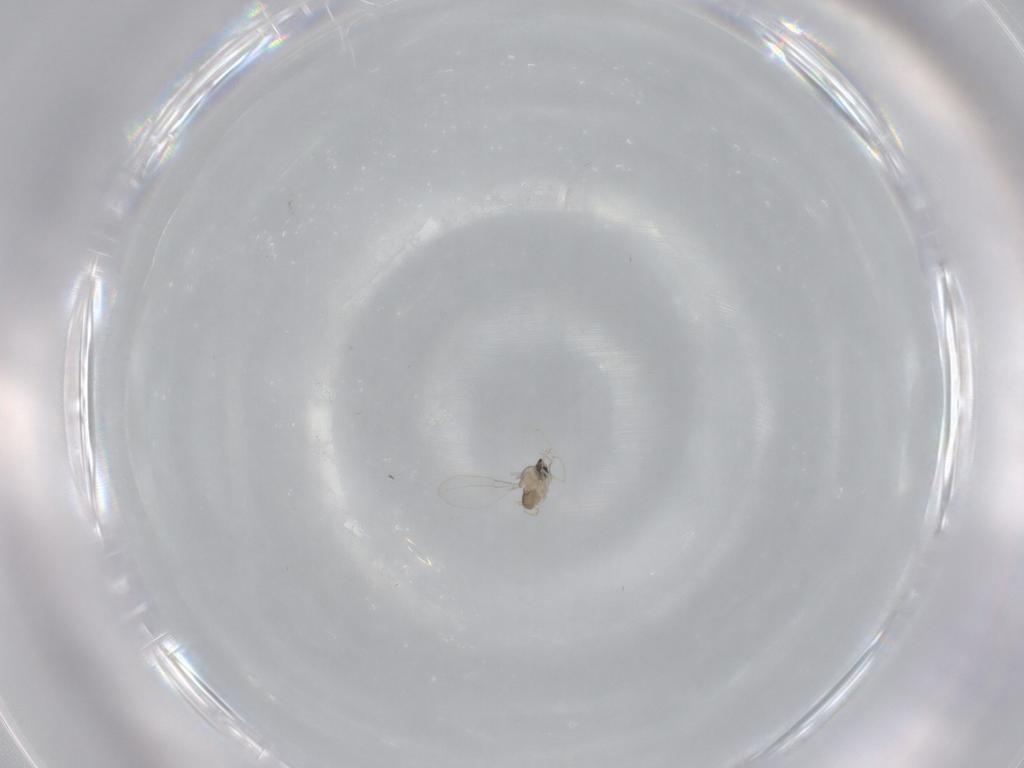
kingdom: Animalia
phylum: Arthropoda
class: Insecta
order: Diptera
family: Cecidomyiidae
